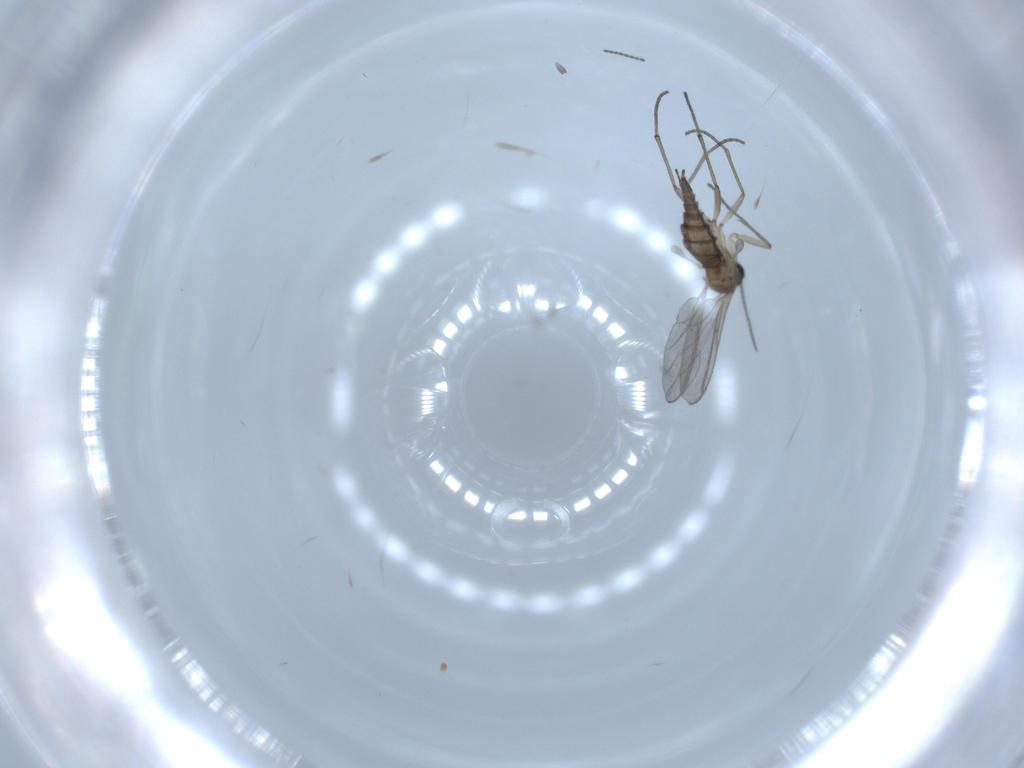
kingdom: Animalia
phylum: Arthropoda
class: Insecta
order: Diptera
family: Sciaridae
